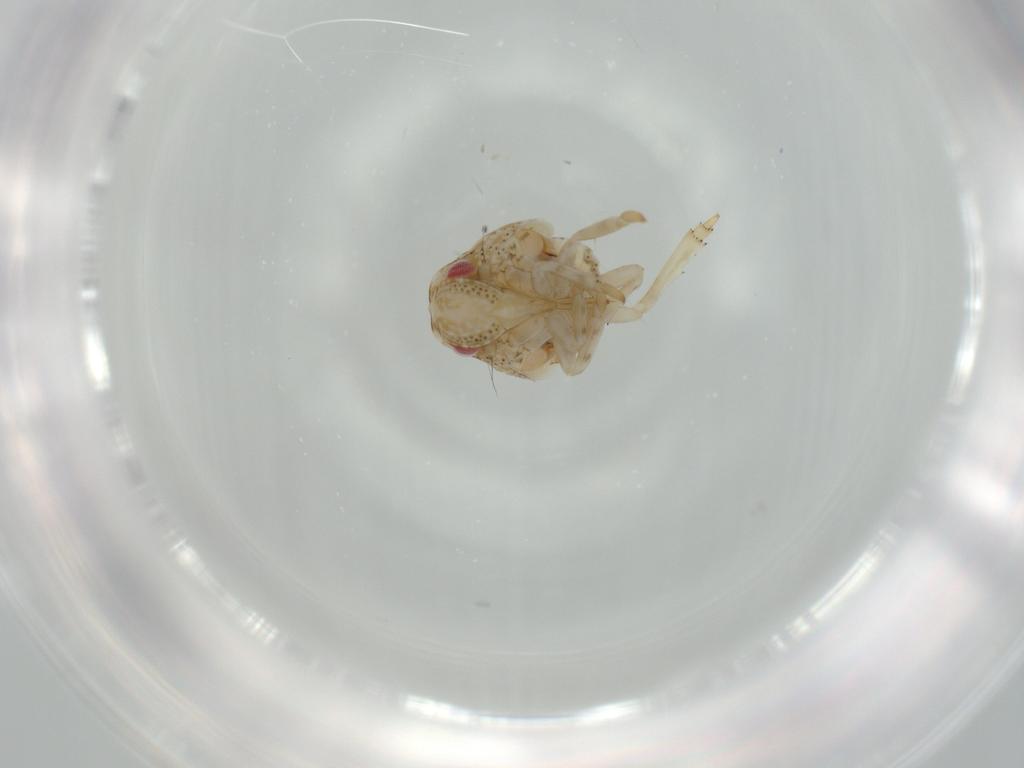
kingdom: Animalia
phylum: Arthropoda
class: Insecta
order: Hemiptera
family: Acanaloniidae
